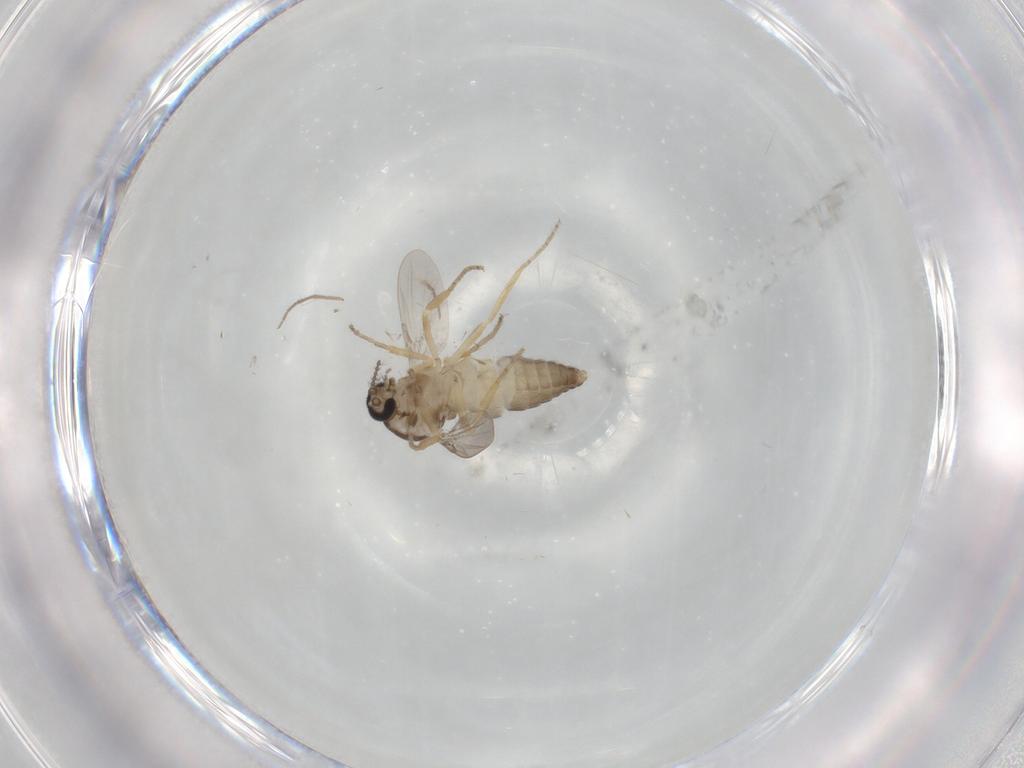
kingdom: Animalia
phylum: Arthropoda
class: Insecta
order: Diptera
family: Ceratopogonidae
